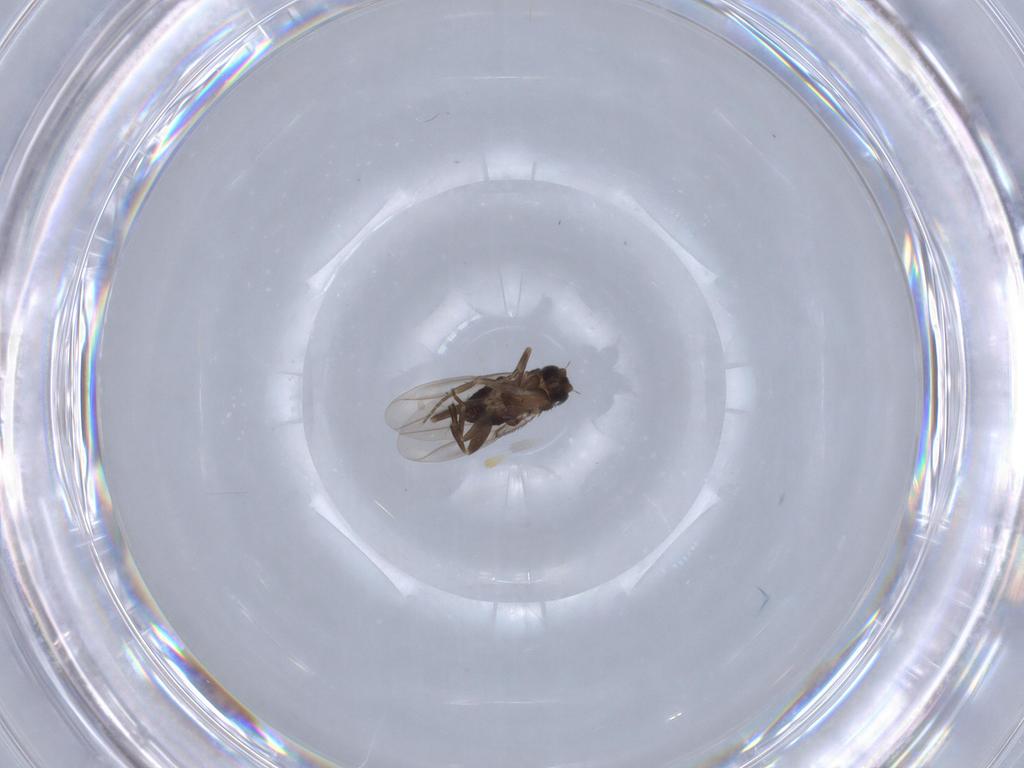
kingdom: Animalia
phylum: Arthropoda
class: Insecta
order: Diptera
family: Phoridae
